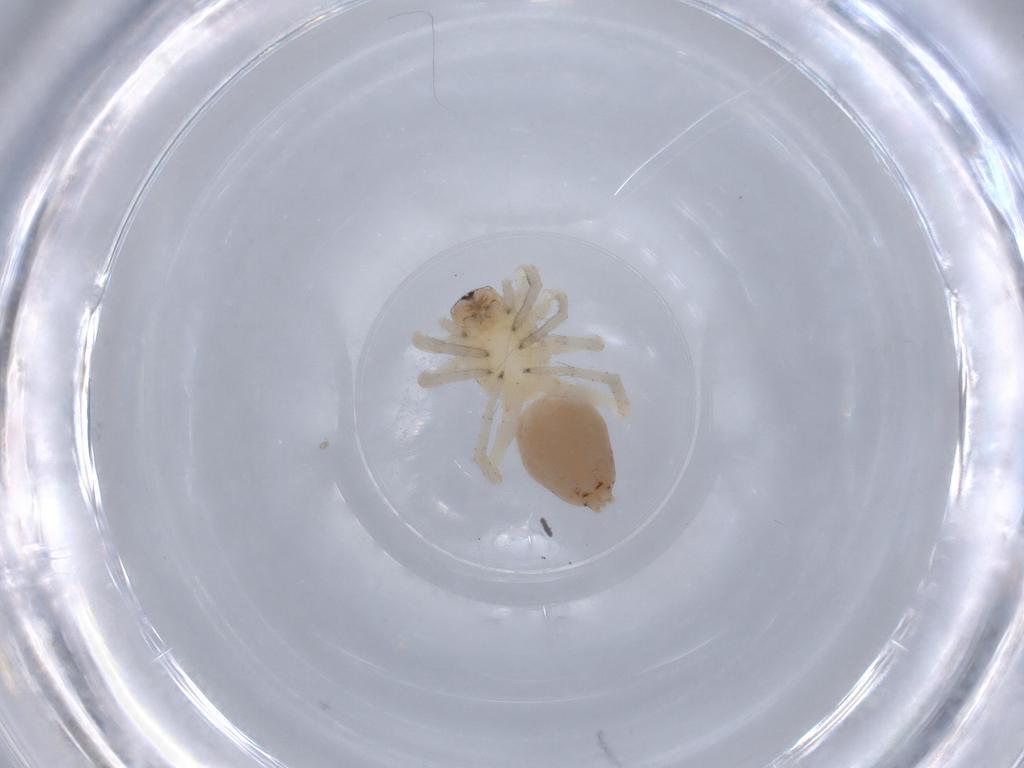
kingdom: Animalia
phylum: Arthropoda
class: Arachnida
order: Araneae
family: Clubionidae
